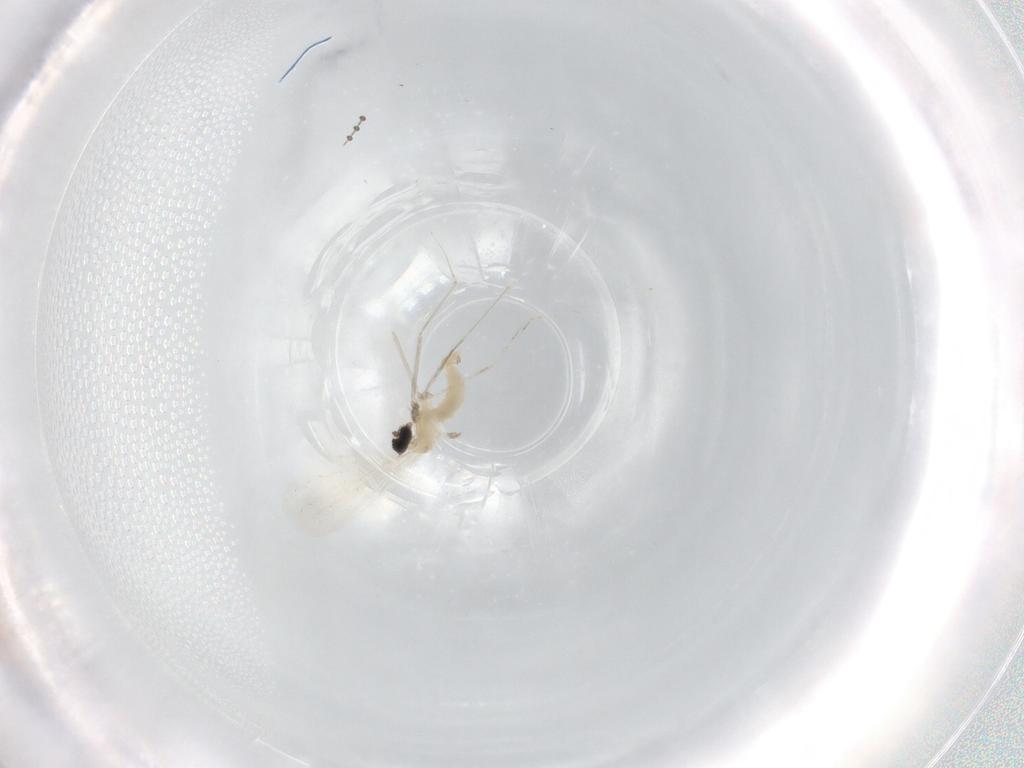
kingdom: Animalia
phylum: Arthropoda
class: Insecta
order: Diptera
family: Cecidomyiidae
